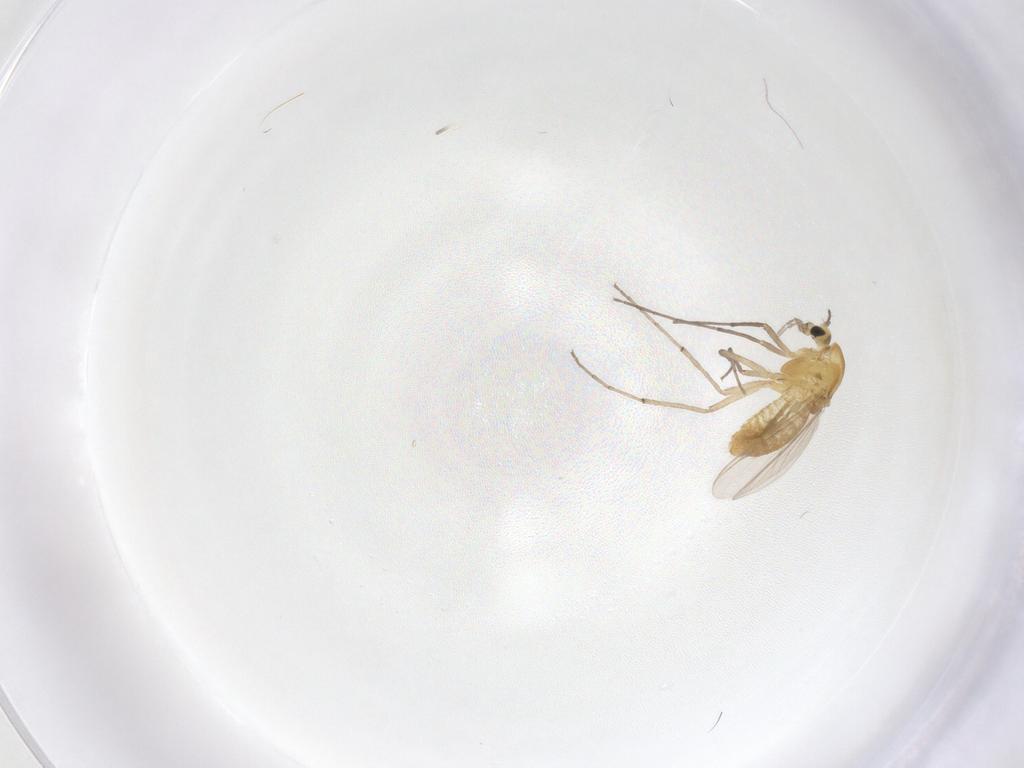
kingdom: Animalia
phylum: Arthropoda
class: Insecta
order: Diptera
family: Chironomidae
